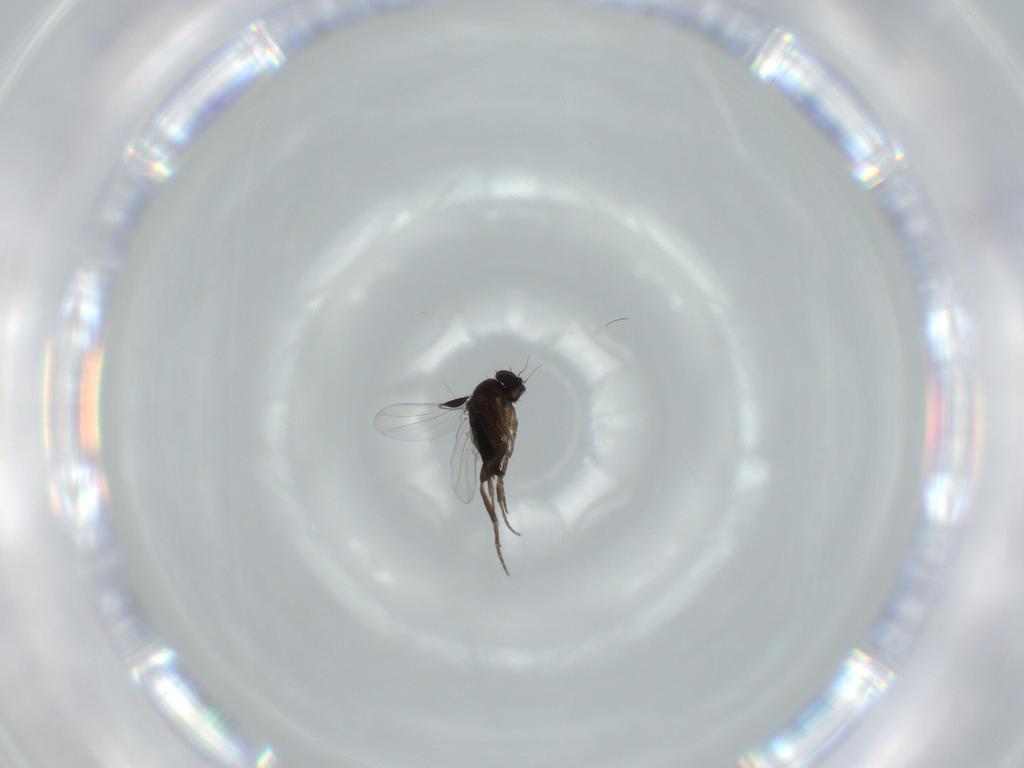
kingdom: Animalia
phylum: Arthropoda
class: Insecta
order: Diptera
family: Phoridae
